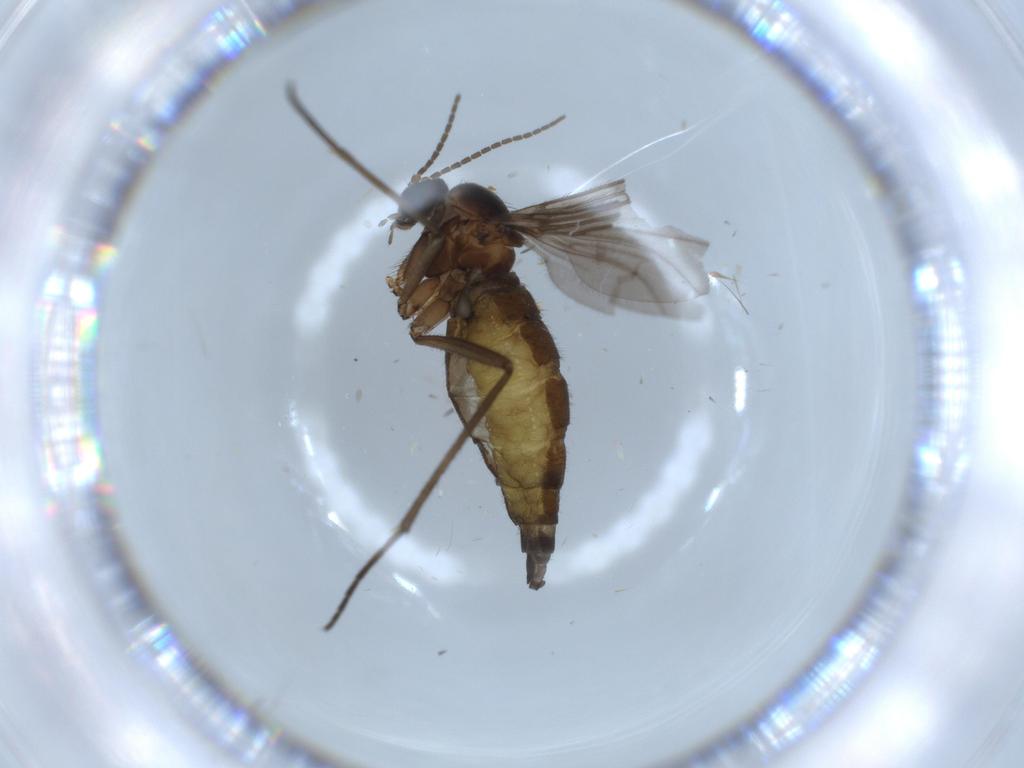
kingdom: Animalia
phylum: Arthropoda
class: Insecta
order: Diptera
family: Sciaridae
